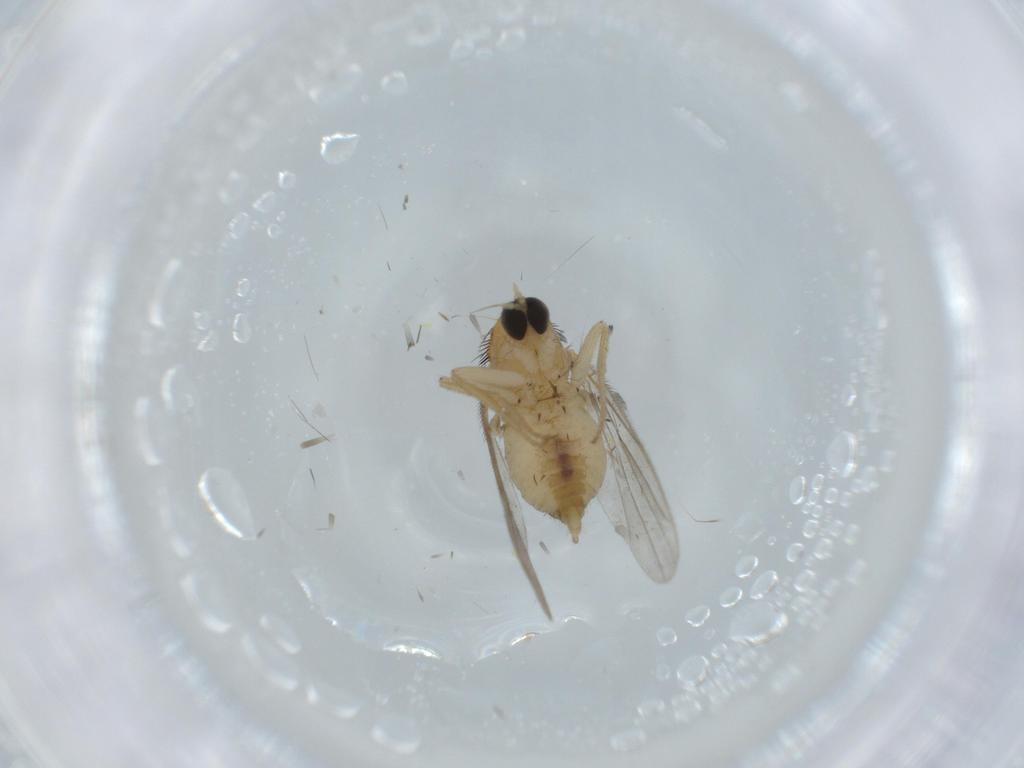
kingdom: Animalia
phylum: Arthropoda
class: Insecta
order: Diptera
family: Hybotidae
